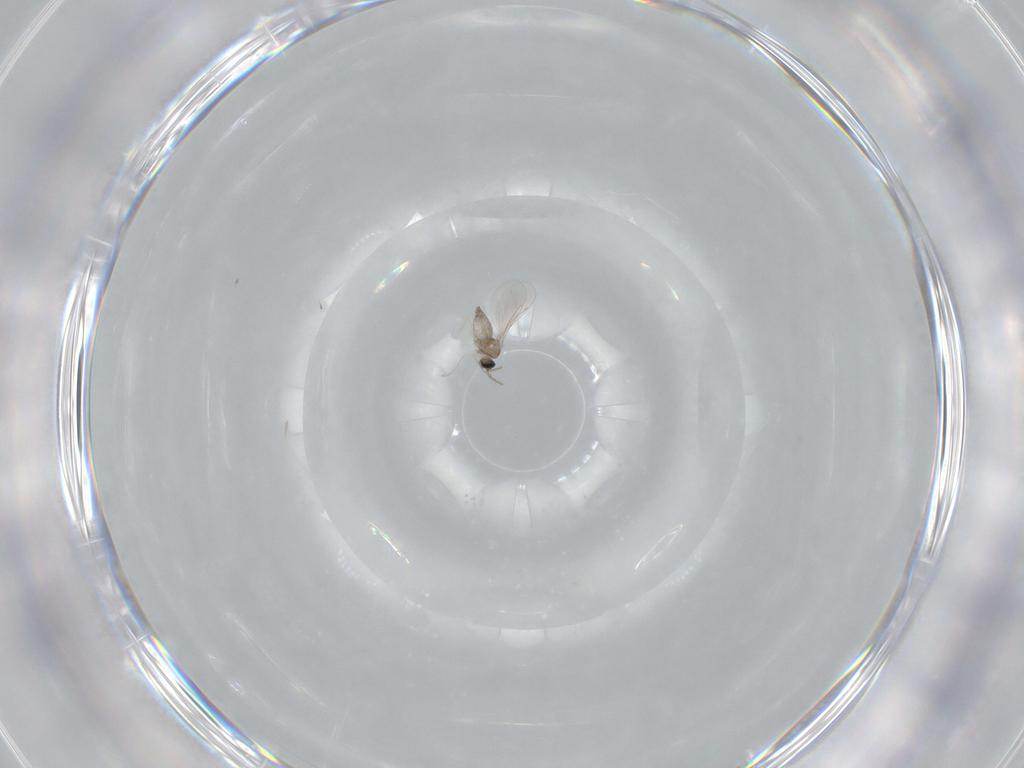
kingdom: Animalia
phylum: Arthropoda
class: Insecta
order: Diptera
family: Cecidomyiidae
